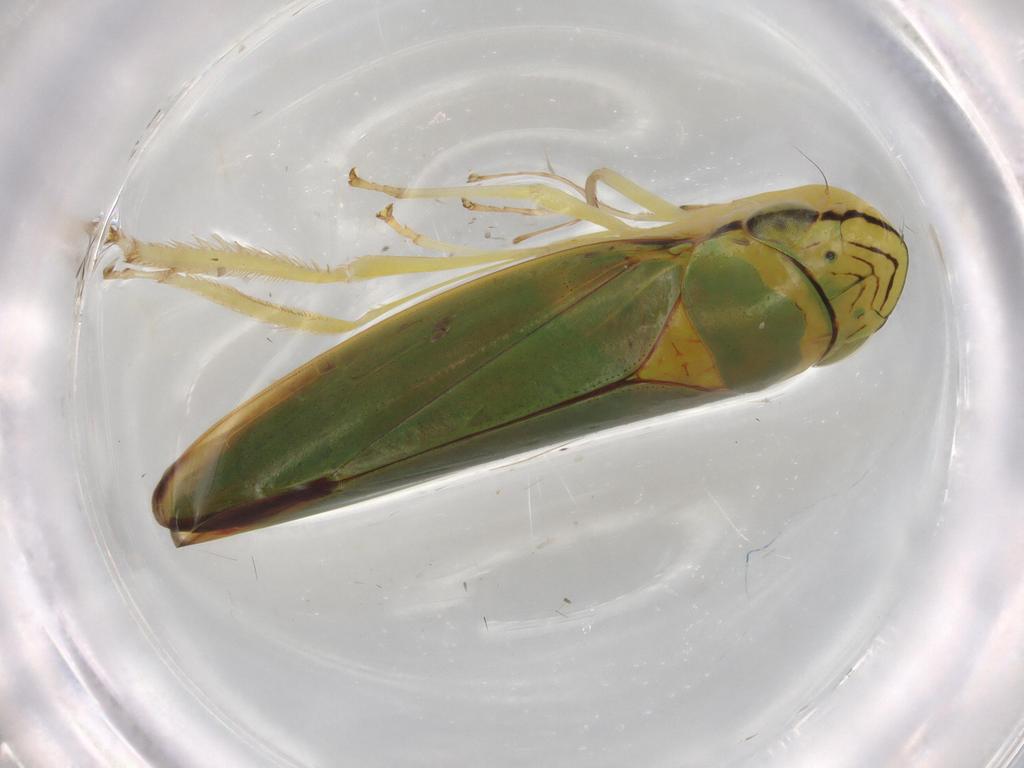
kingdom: Animalia
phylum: Arthropoda
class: Insecta
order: Hemiptera
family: Cicadellidae
